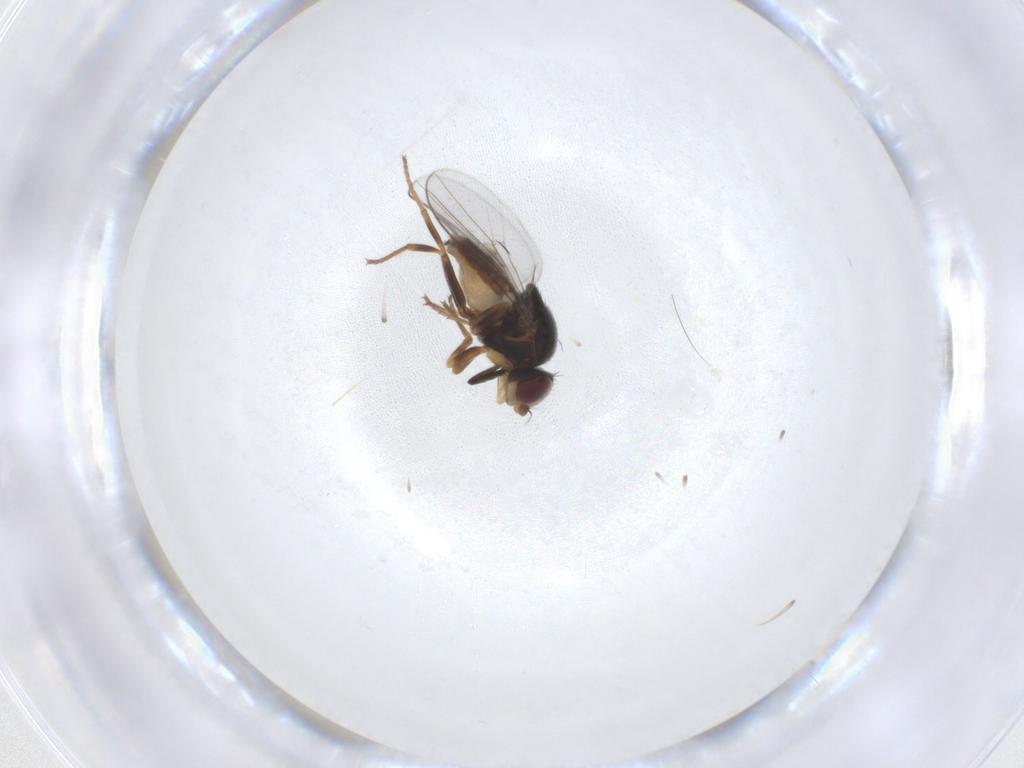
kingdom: Animalia
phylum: Arthropoda
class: Insecta
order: Diptera
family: Chloropidae
